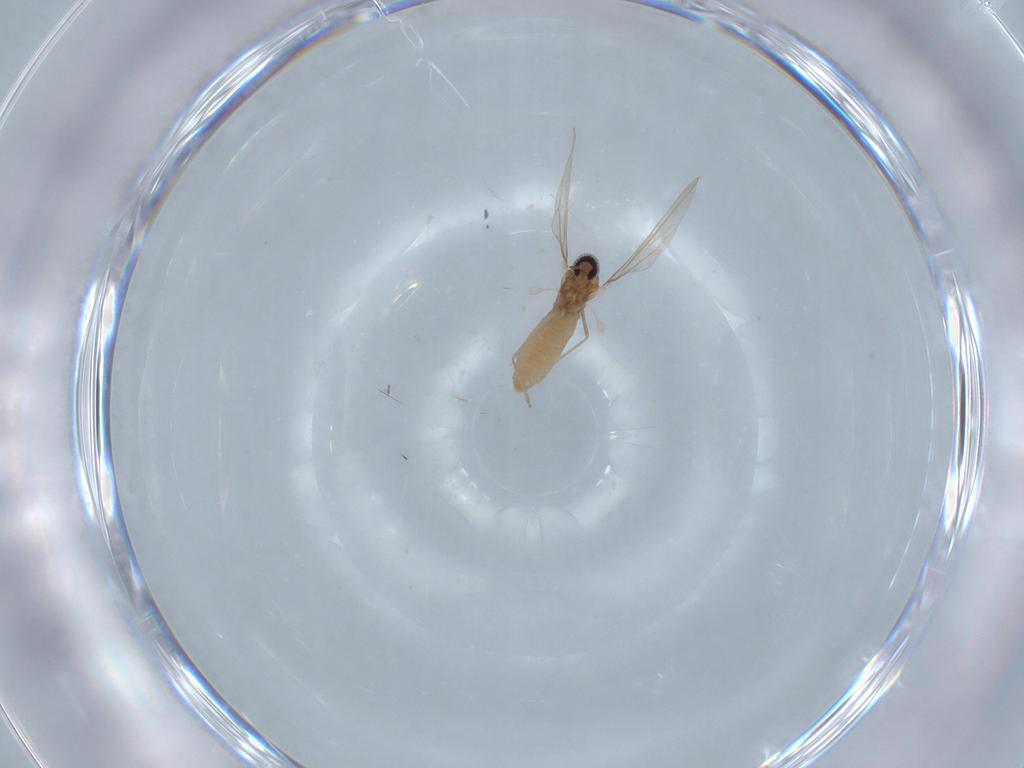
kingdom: Animalia
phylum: Arthropoda
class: Insecta
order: Diptera
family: Cecidomyiidae
